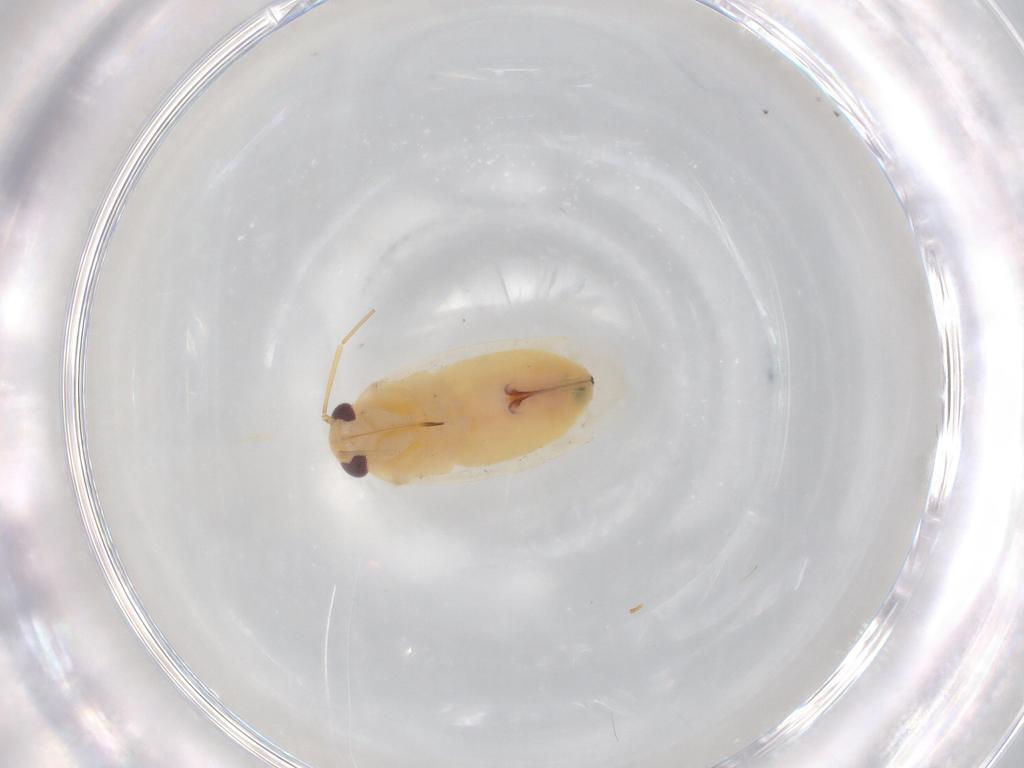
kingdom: Animalia
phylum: Arthropoda
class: Insecta
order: Hemiptera
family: Miridae
